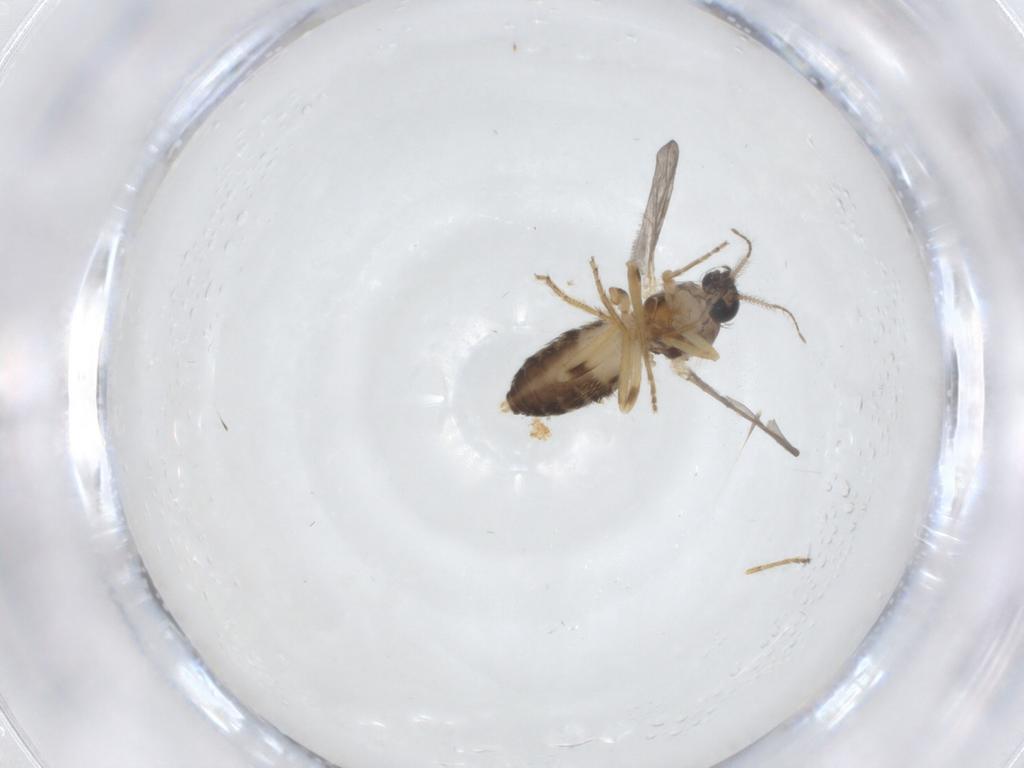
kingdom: Animalia
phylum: Arthropoda
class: Insecta
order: Diptera
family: Ceratopogonidae
